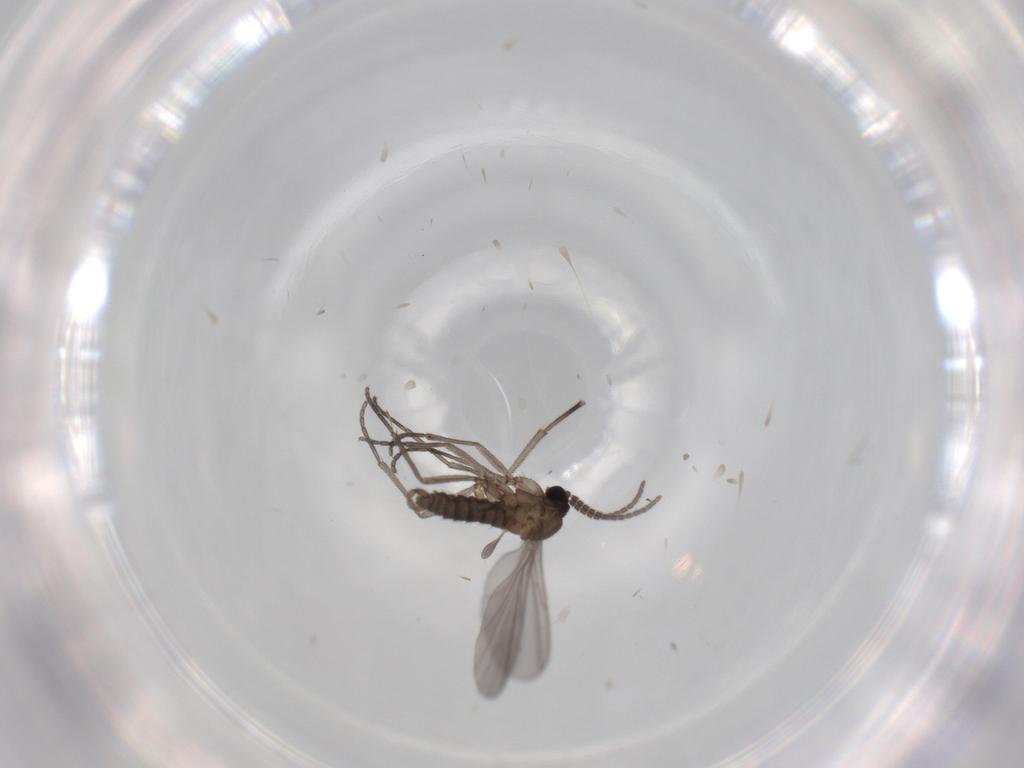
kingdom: Animalia
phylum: Arthropoda
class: Insecta
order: Diptera
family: Sciaridae
